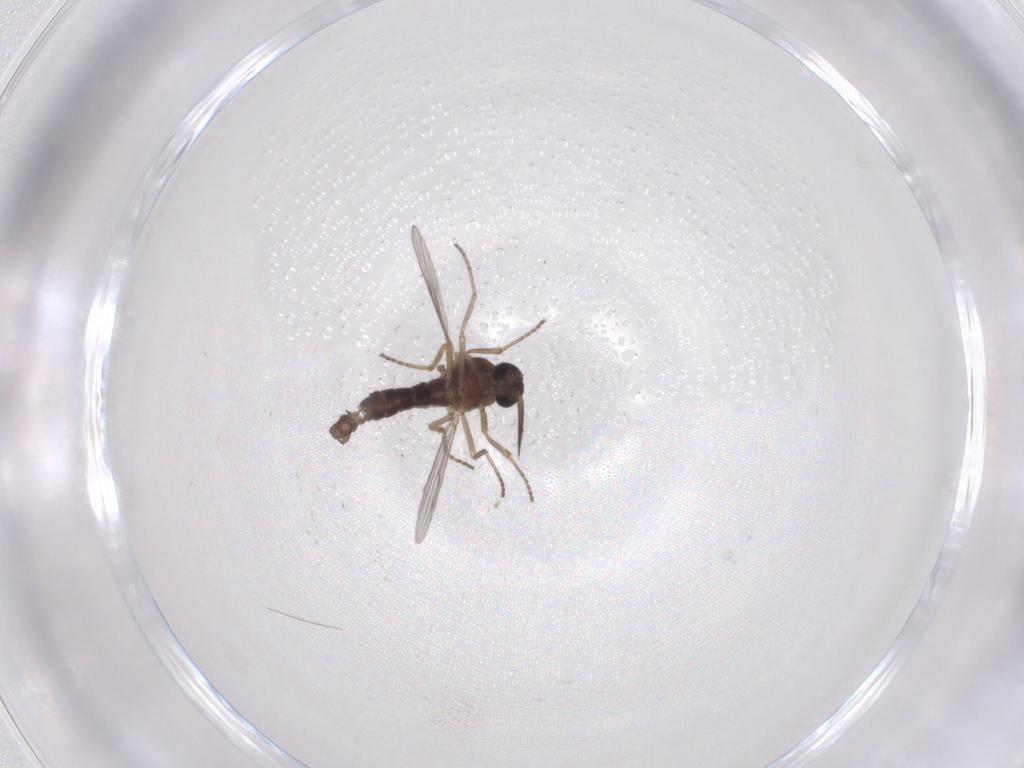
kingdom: Animalia
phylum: Arthropoda
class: Insecta
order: Diptera
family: Ceratopogonidae
